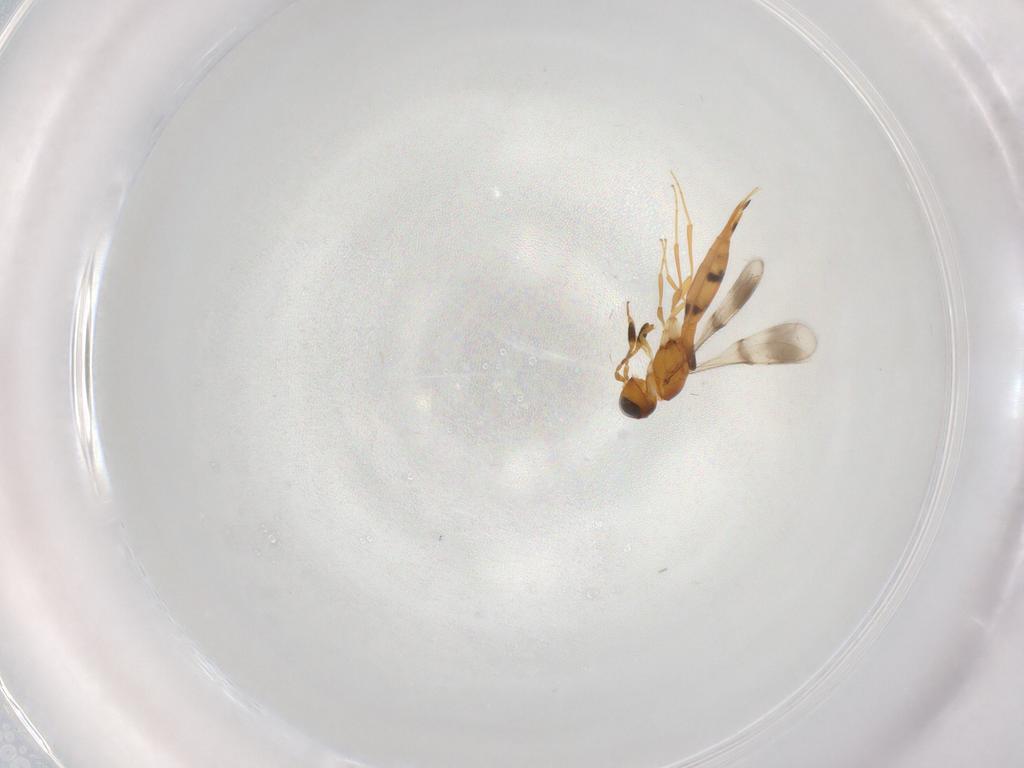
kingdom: Animalia
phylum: Arthropoda
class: Insecta
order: Hymenoptera
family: Scelionidae
